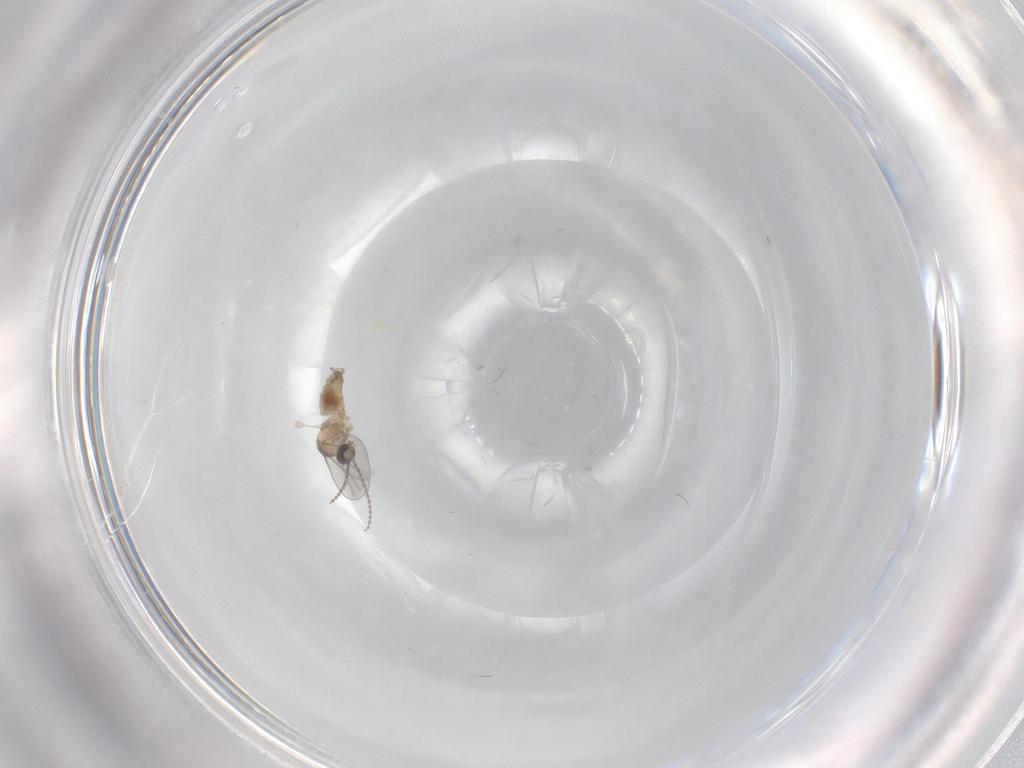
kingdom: Animalia
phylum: Arthropoda
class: Insecta
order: Diptera
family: Cecidomyiidae
